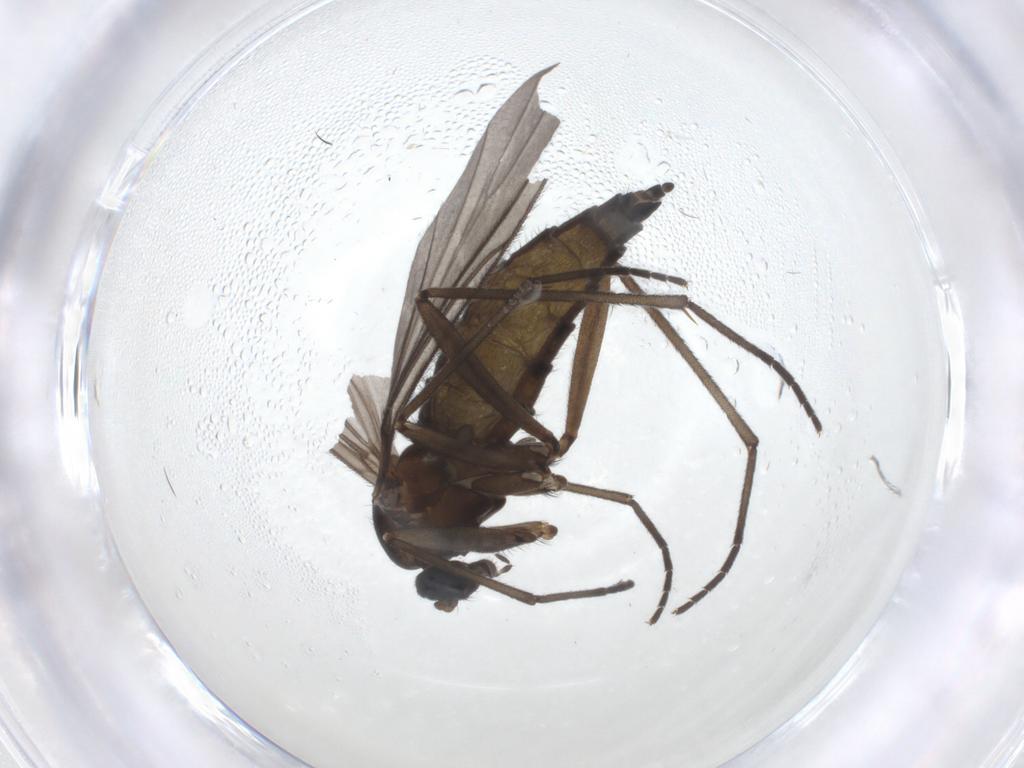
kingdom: Animalia
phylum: Arthropoda
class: Insecta
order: Diptera
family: Sciaridae
